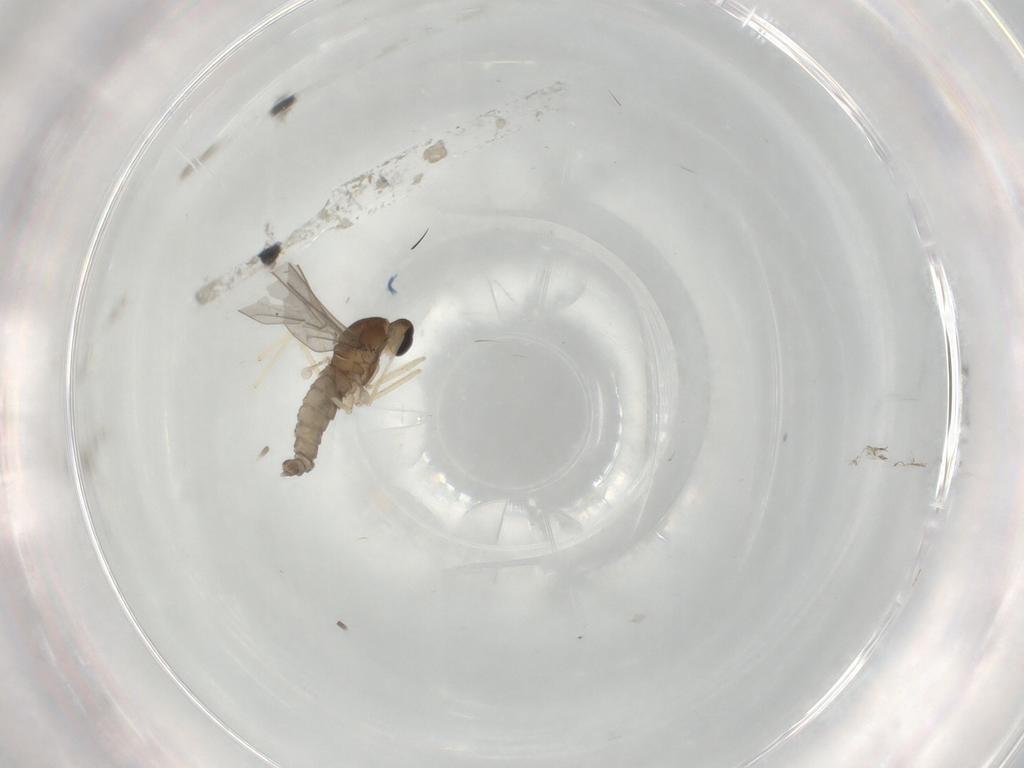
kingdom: Animalia
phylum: Arthropoda
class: Insecta
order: Diptera
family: Cecidomyiidae
